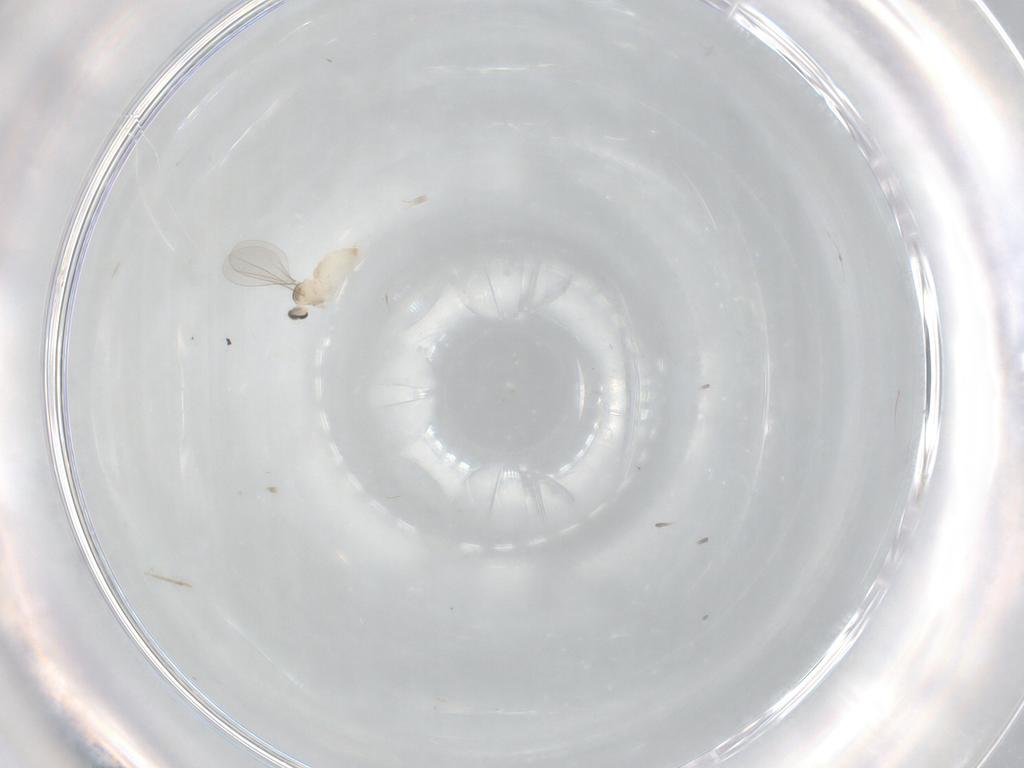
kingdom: Animalia
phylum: Arthropoda
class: Insecta
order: Diptera
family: Cecidomyiidae
